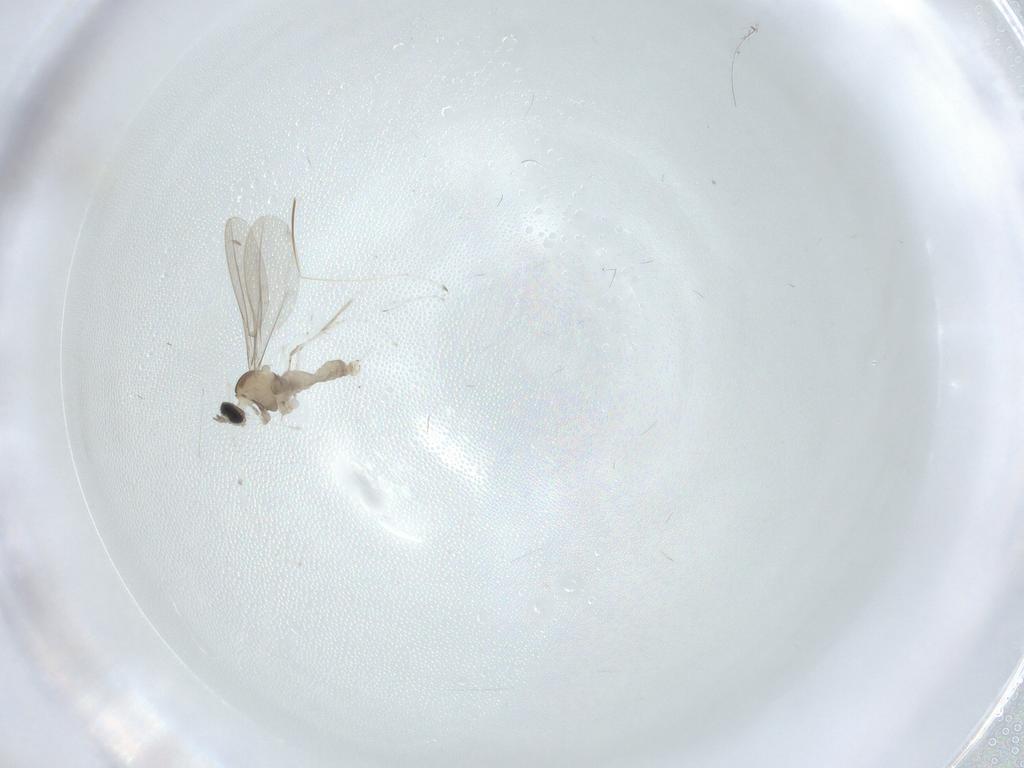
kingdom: Animalia
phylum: Arthropoda
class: Insecta
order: Diptera
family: Cecidomyiidae
